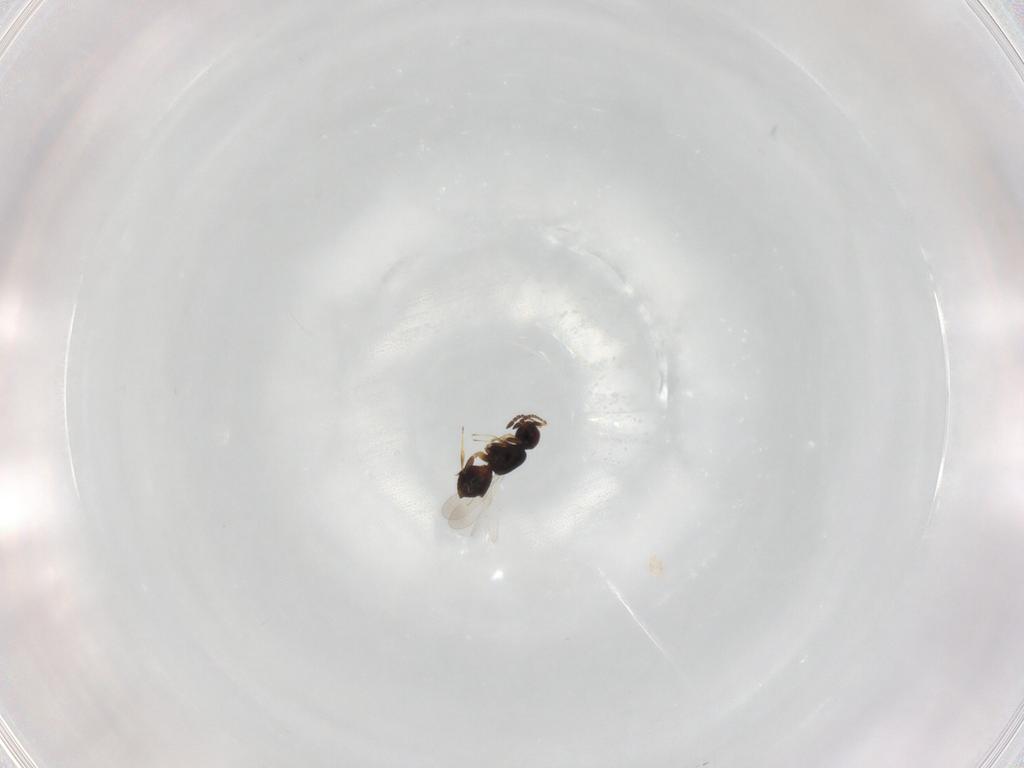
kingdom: Animalia
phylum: Arthropoda
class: Insecta
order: Hymenoptera
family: Ceraphronidae
